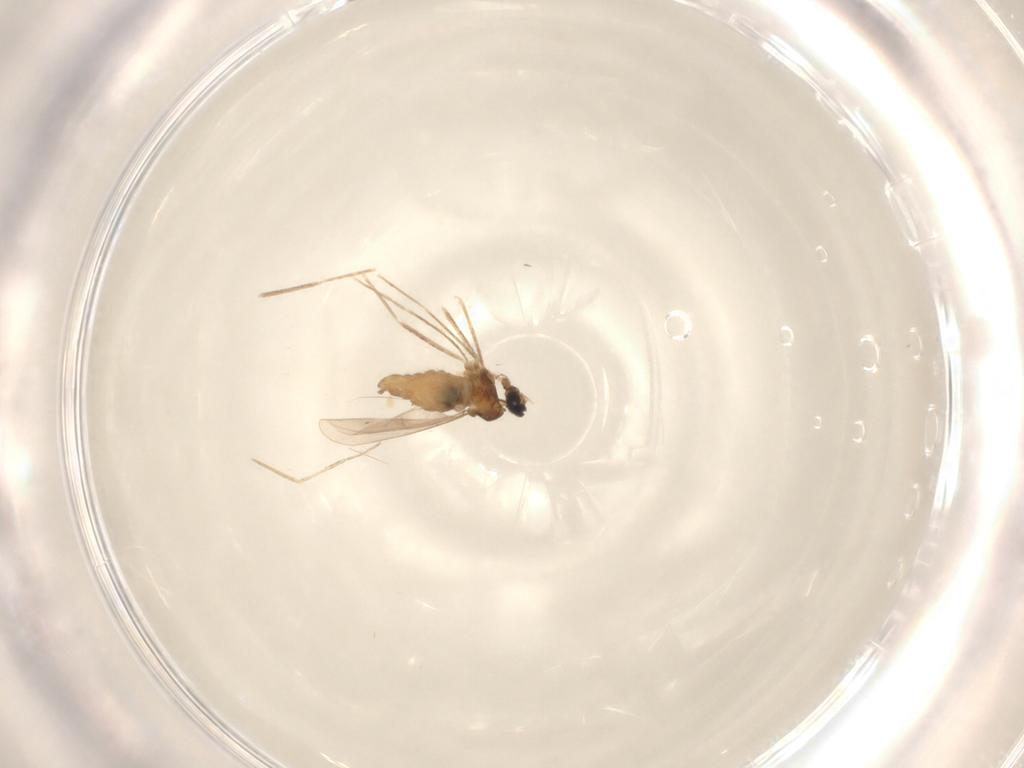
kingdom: Animalia
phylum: Arthropoda
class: Insecta
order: Diptera
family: Cecidomyiidae
